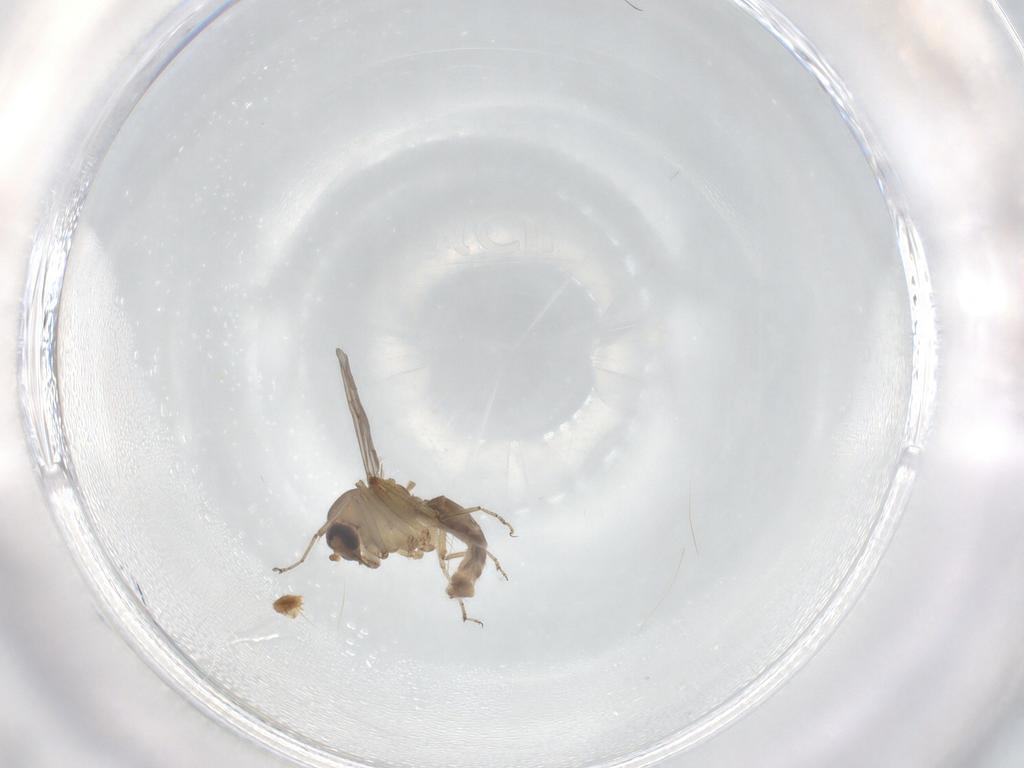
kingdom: Animalia
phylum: Arthropoda
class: Insecta
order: Diptera
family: Ceratopogonidae
